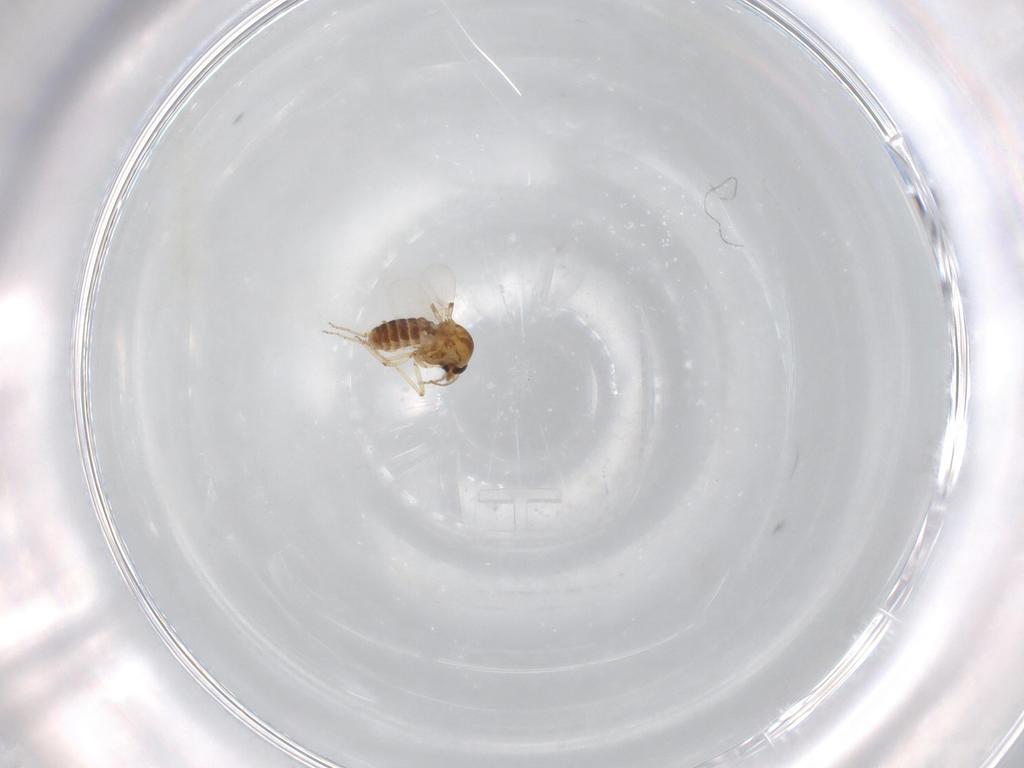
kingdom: Animalia
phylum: Arthropoda
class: Insecta
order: Diptera
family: Ceratopogonidae
